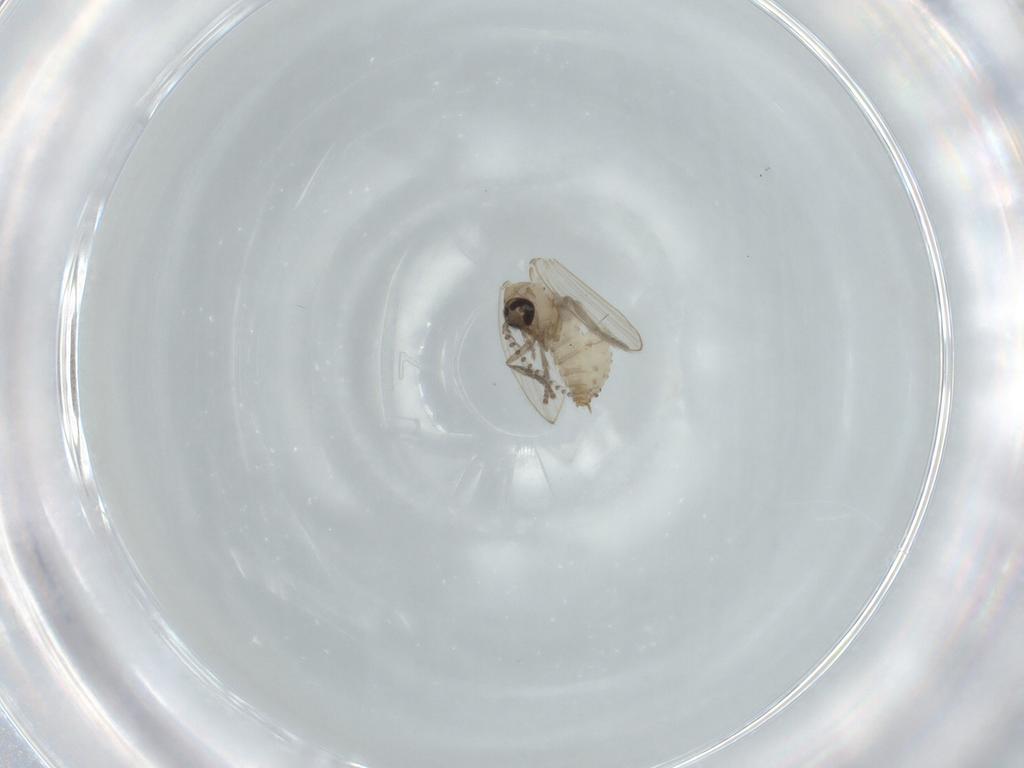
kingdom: Animalia
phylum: Arthropoda
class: Insecta
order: Diptera
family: Psychodidae
